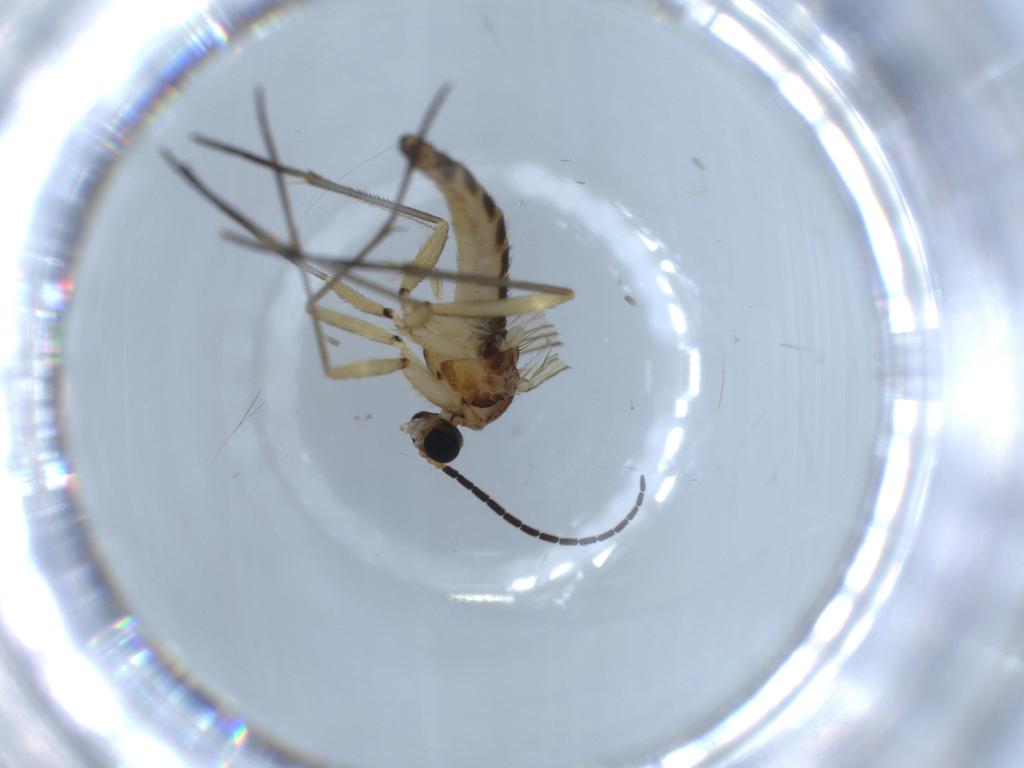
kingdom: Animalia
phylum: Arthropoda
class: Insecta
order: Diptera
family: Sciaridae
